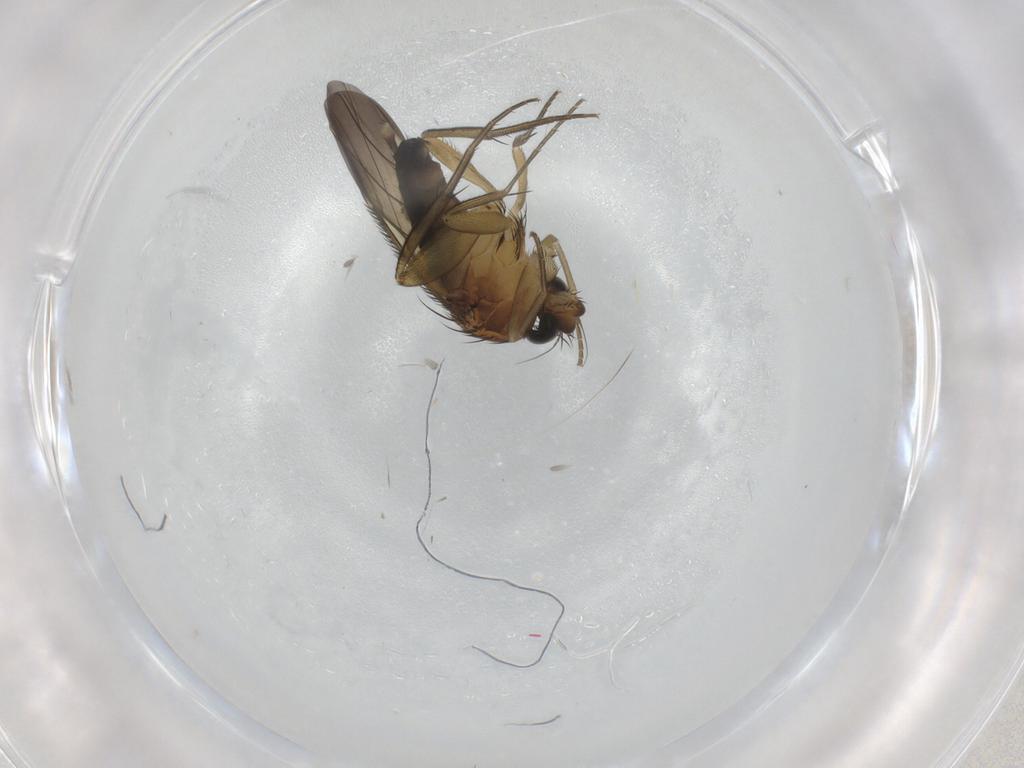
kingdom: Animalia
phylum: Arthropoda
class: Insecta
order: Diptera
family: Phoridae
